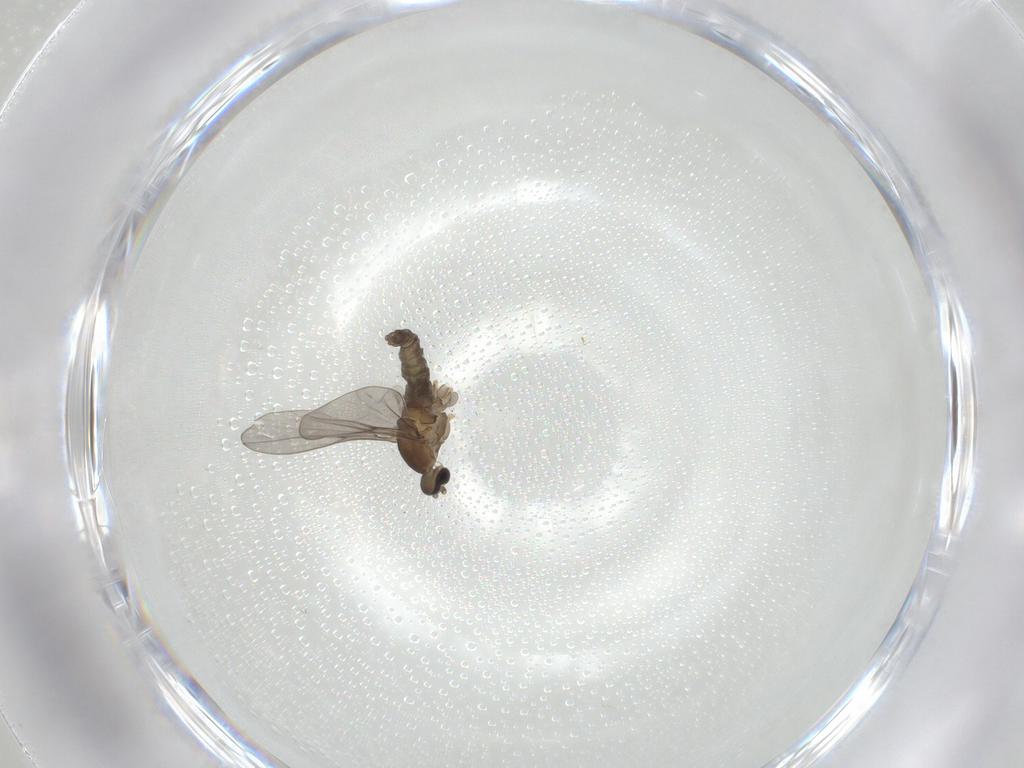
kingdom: Animalia
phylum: Arthropoda
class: Insecta
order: Diptera
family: Cecidomyiidae
